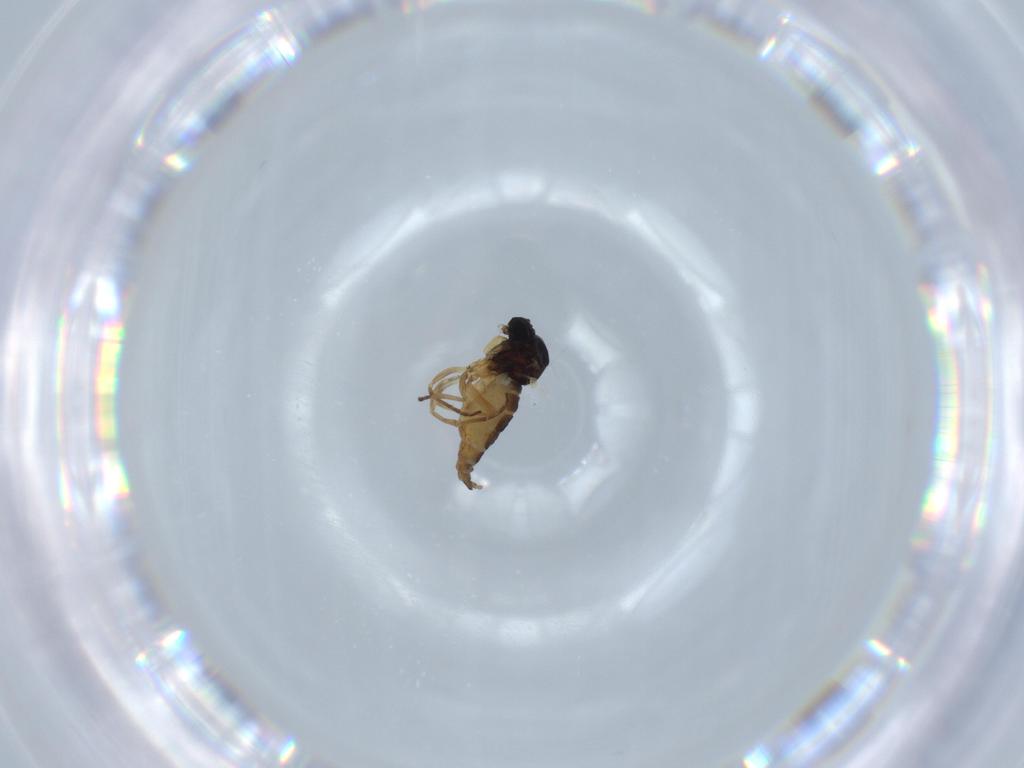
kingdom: Animalia
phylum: Arthropoda
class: Insecta
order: Diptera
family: Sciaridae
